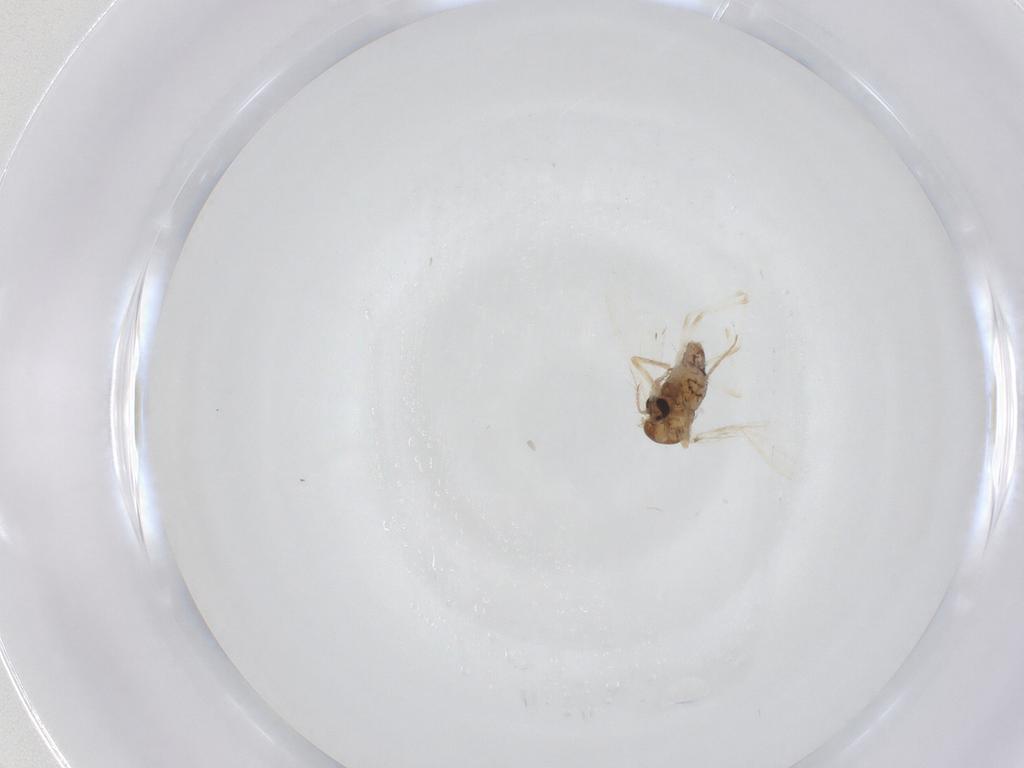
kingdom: Animalia
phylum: Arthropoda
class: Insecta
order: Diptera
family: Chironomidae
